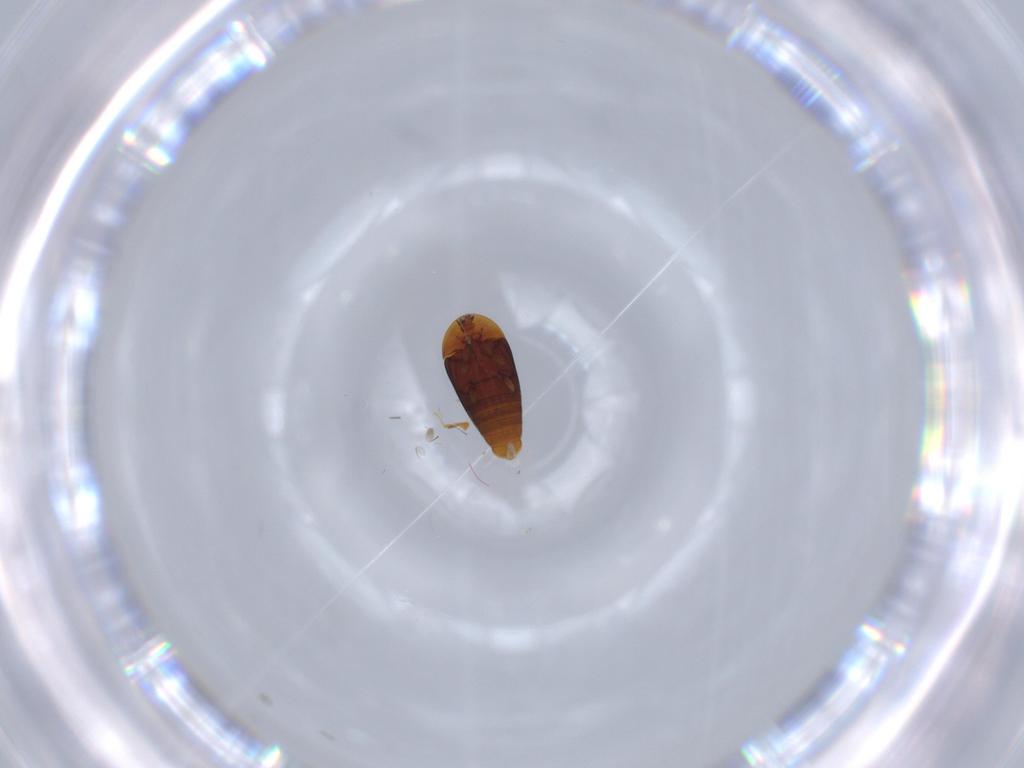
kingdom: Animalia
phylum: Arthropoda
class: Insecta
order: Coleoptera
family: Corylophidae
